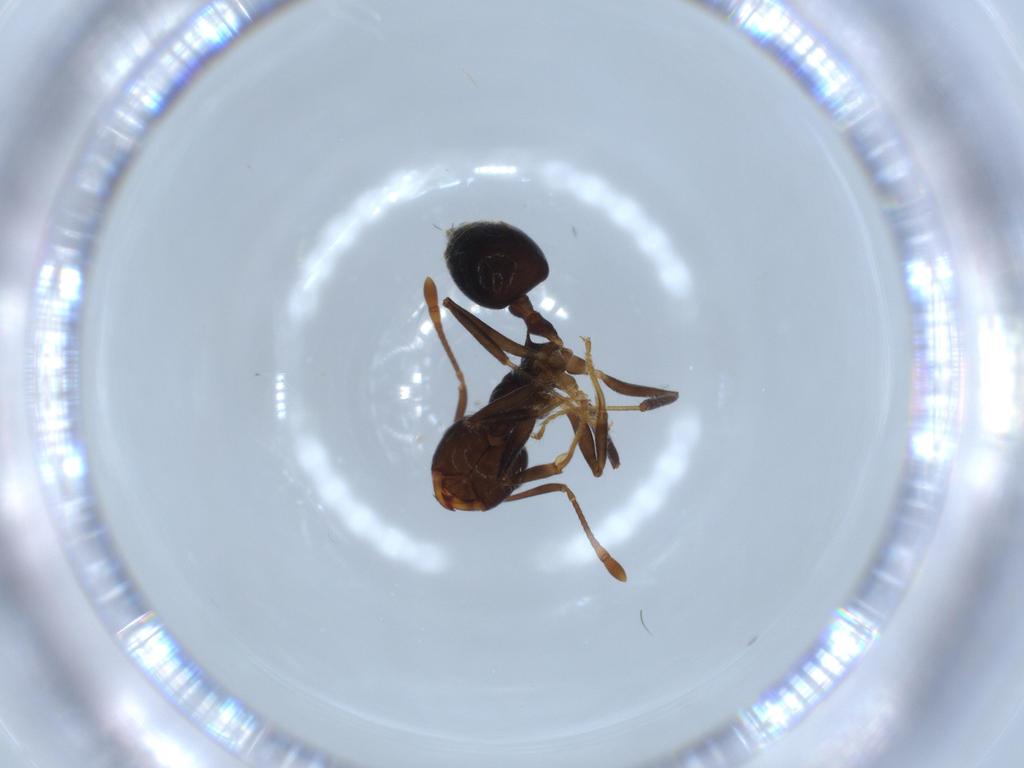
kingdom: Animalia
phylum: Arthropoda
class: Insecta
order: Hymenoptera
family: Formicidae
